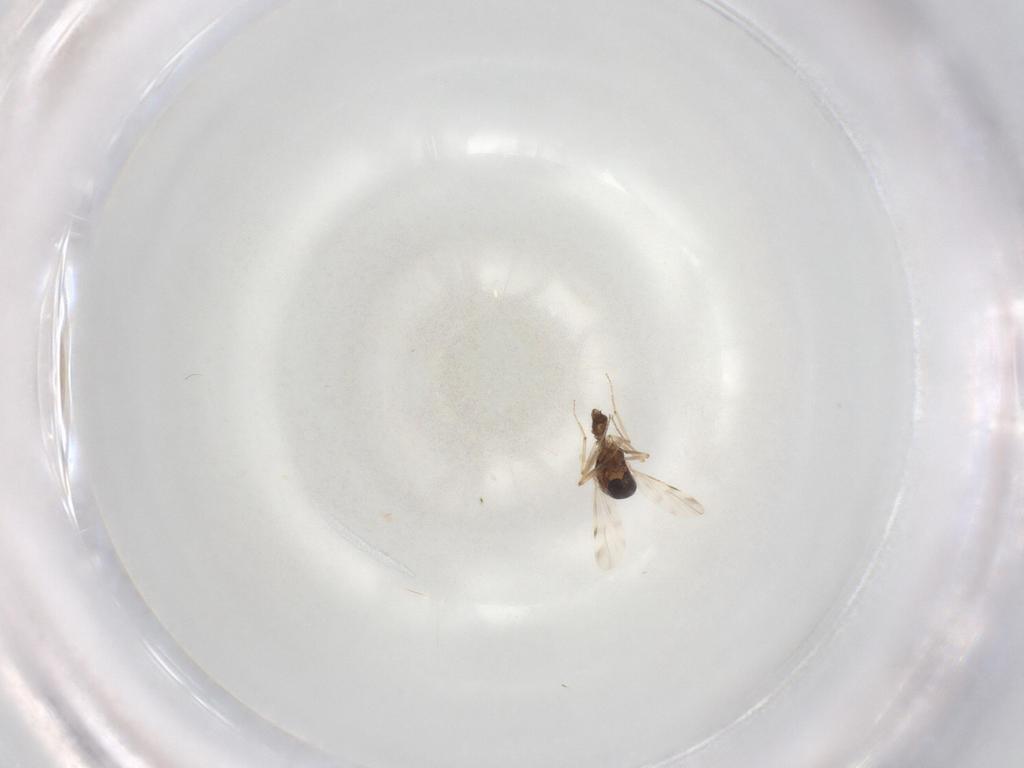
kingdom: Animalia
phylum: Arthropoda
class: Insecta
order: Diptera
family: Ceratopogonidae
